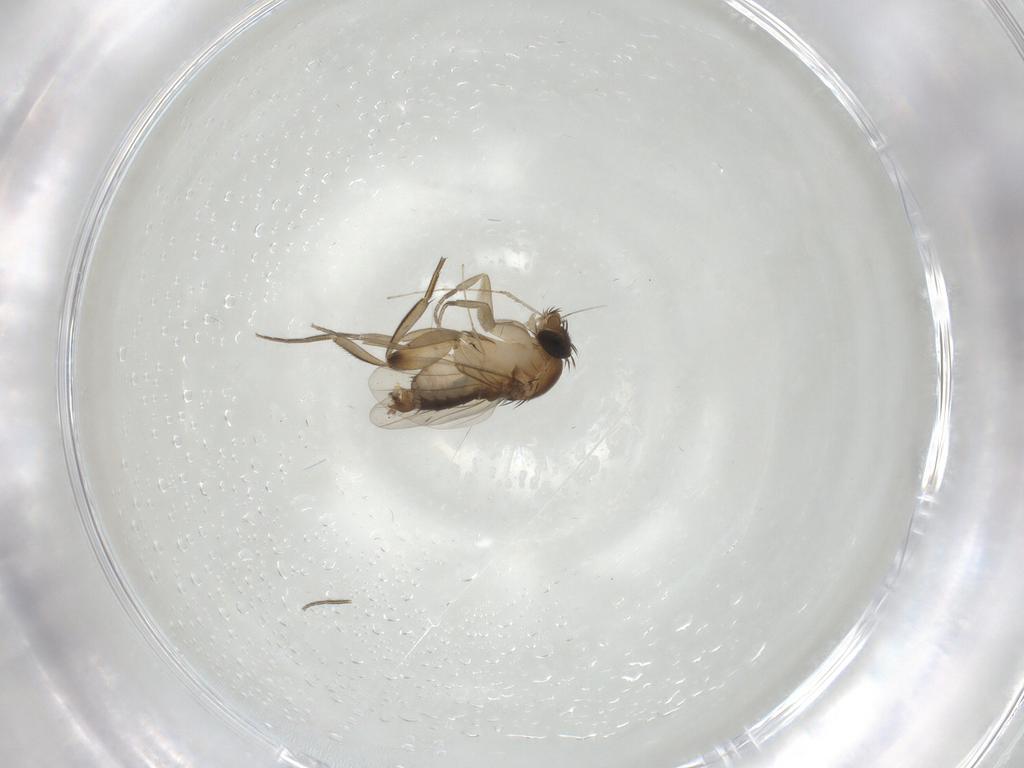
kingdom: Animalia
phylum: Arthropoda
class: Insecta
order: Diptera
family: Phoridae
